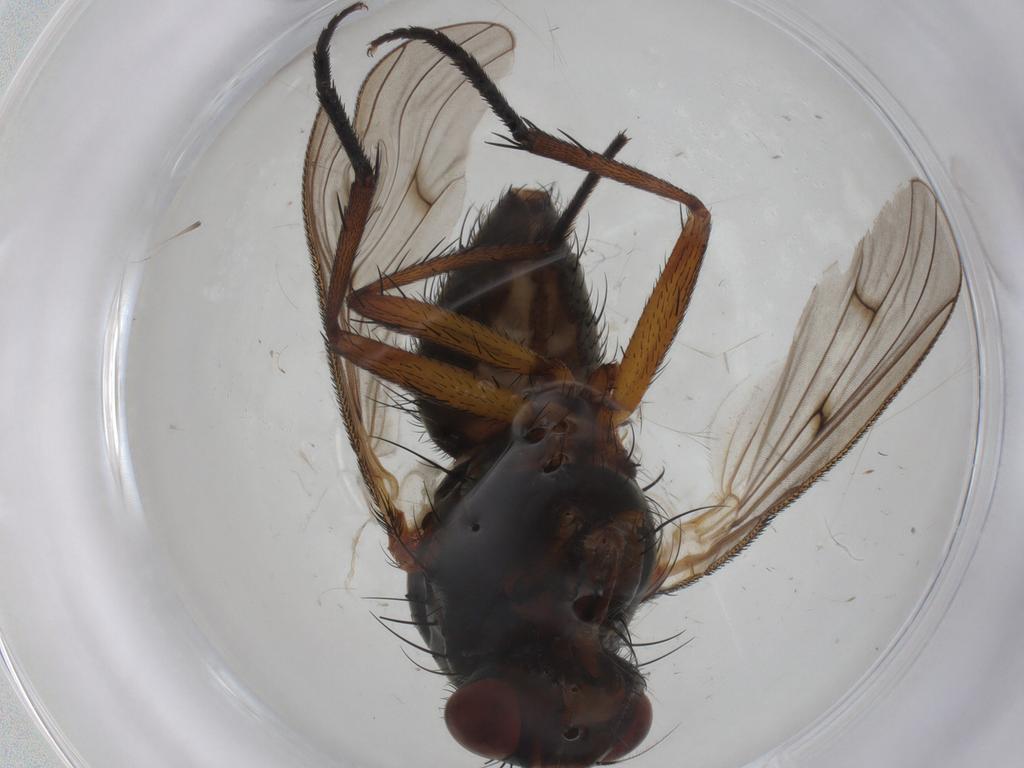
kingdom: Animalia
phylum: Arthropoda
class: Insecta
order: Diptera
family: Anthomyiidae
